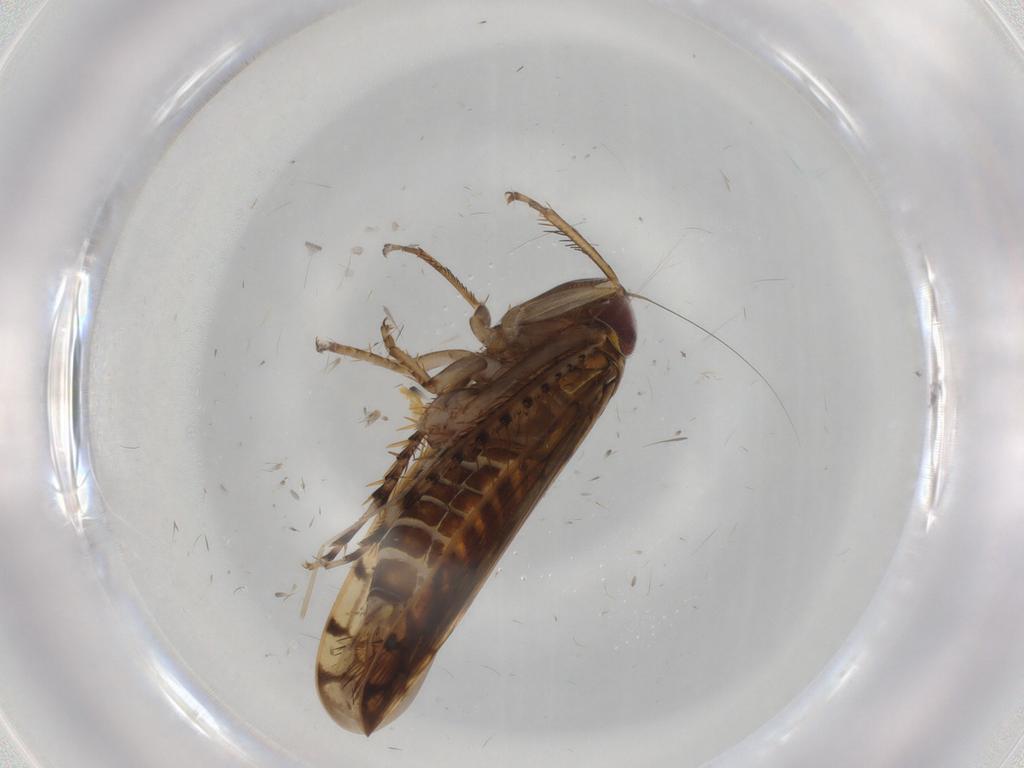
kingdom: Animalia
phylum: Arthropoda
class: Insecta
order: Hemiptera
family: Cicadellidae
